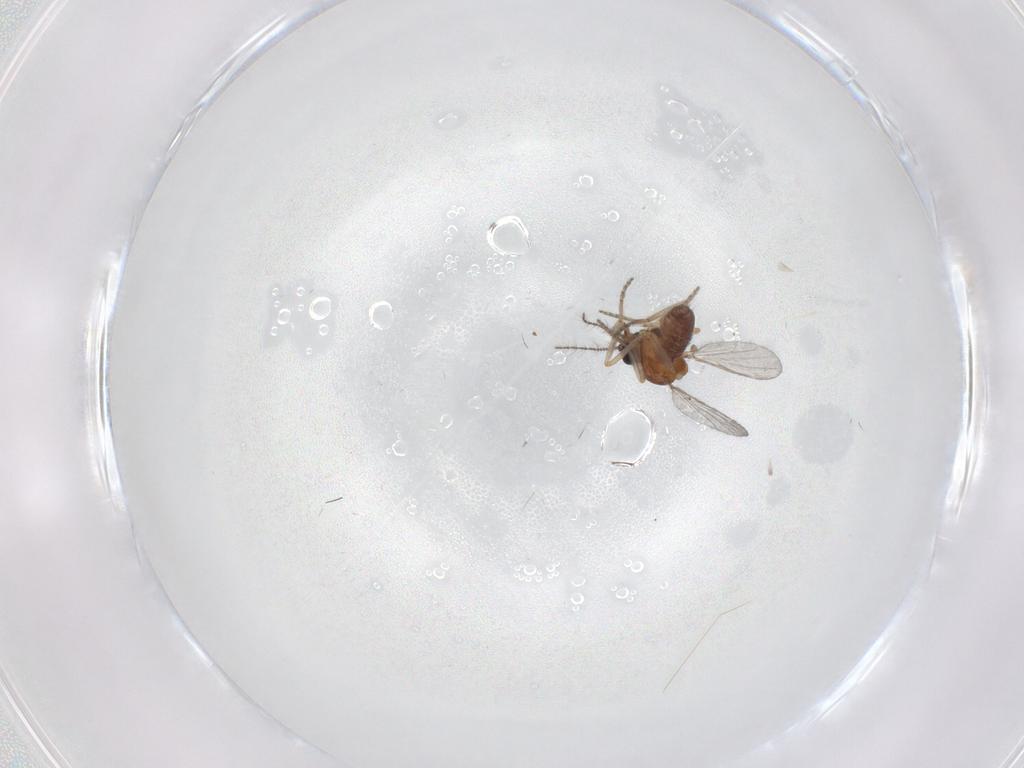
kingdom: Animalia
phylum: Arthropoda
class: Insecta
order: Diptera
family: Ceratopogonidae
